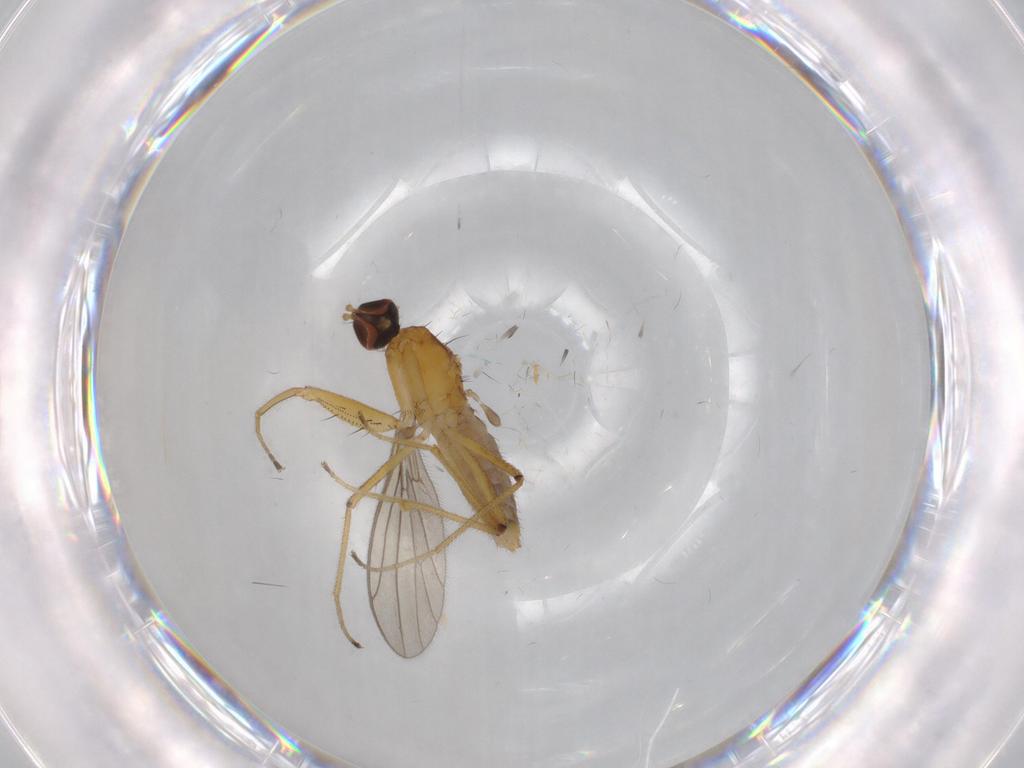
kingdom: Animalia
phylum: Arthropoda
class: Insecta
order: Diptera
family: Empididae
